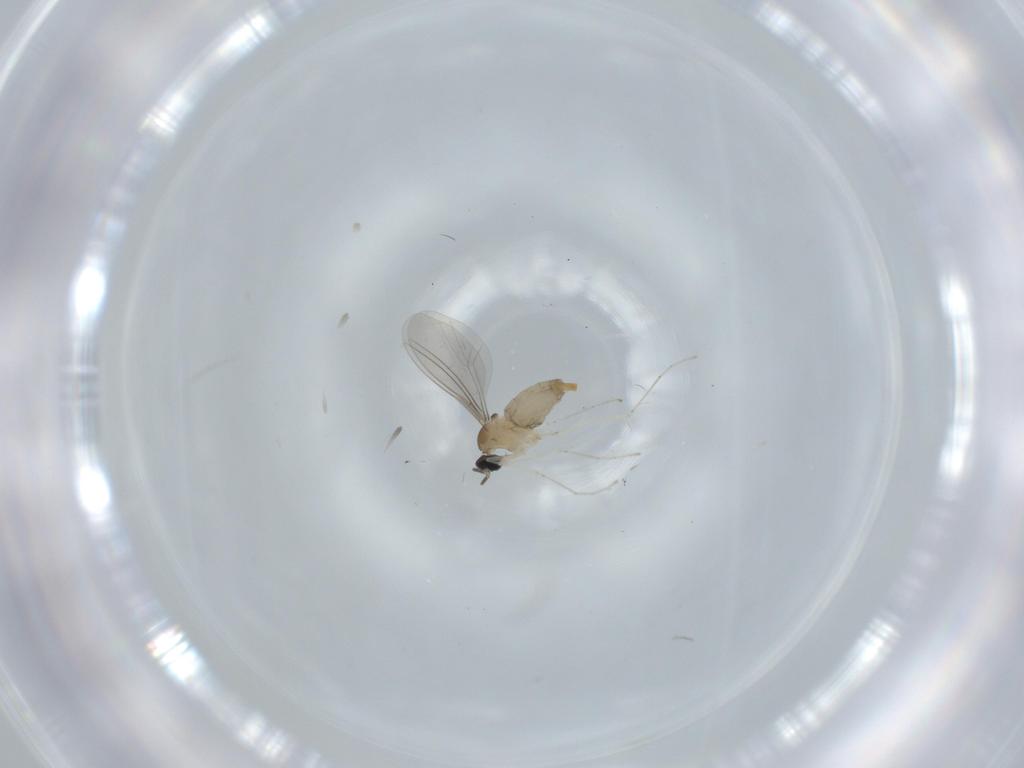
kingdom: Animalia
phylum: Arthropoda
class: Insecta
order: Diptera
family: Cecidomyiidae
